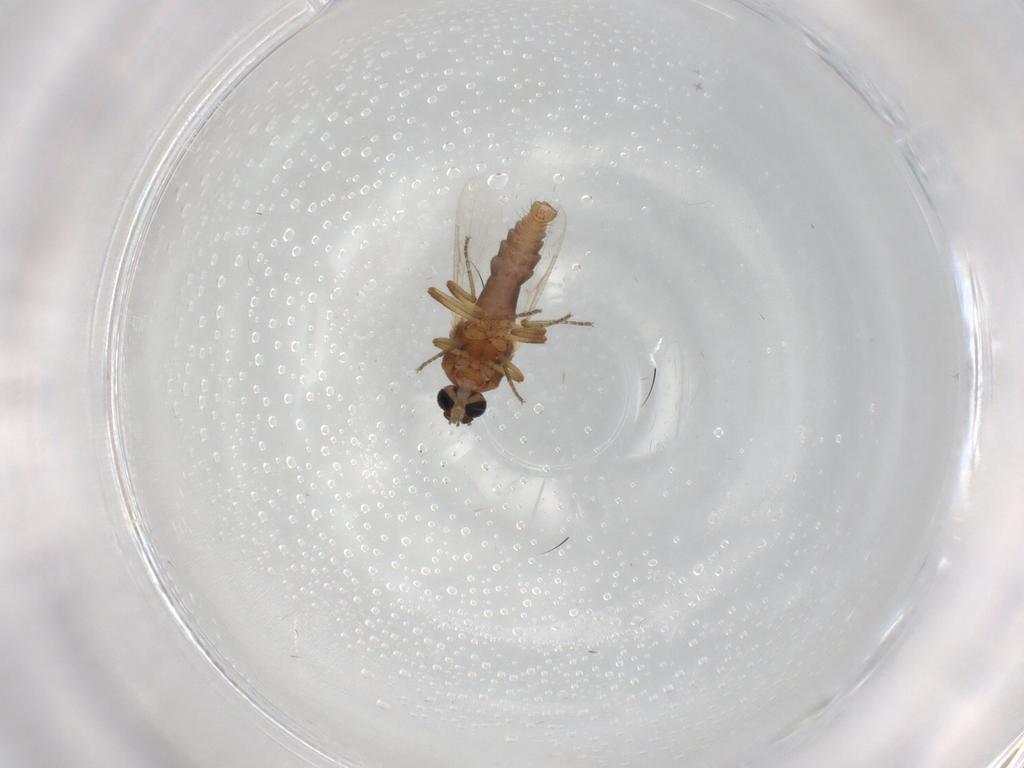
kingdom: Animalia
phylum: Arthropoda
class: Insecta
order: Diptera
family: Ceratopogonidae
